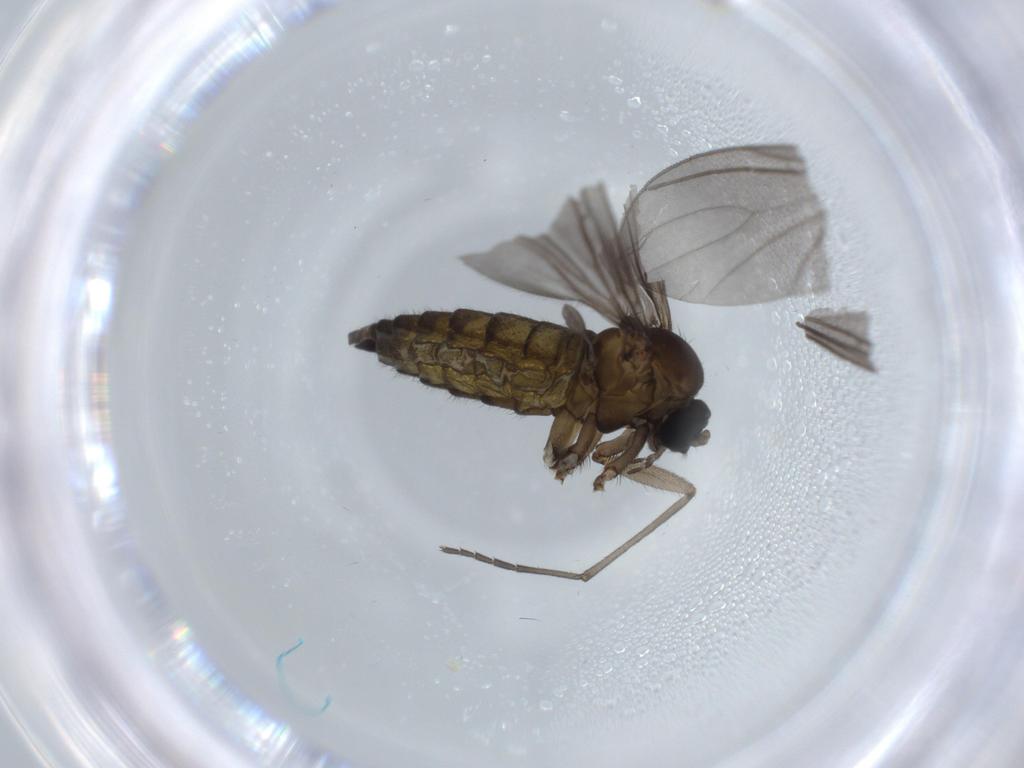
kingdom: Animalia
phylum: Arthropoda
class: Insecta
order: Diptera
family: Sciaridae
